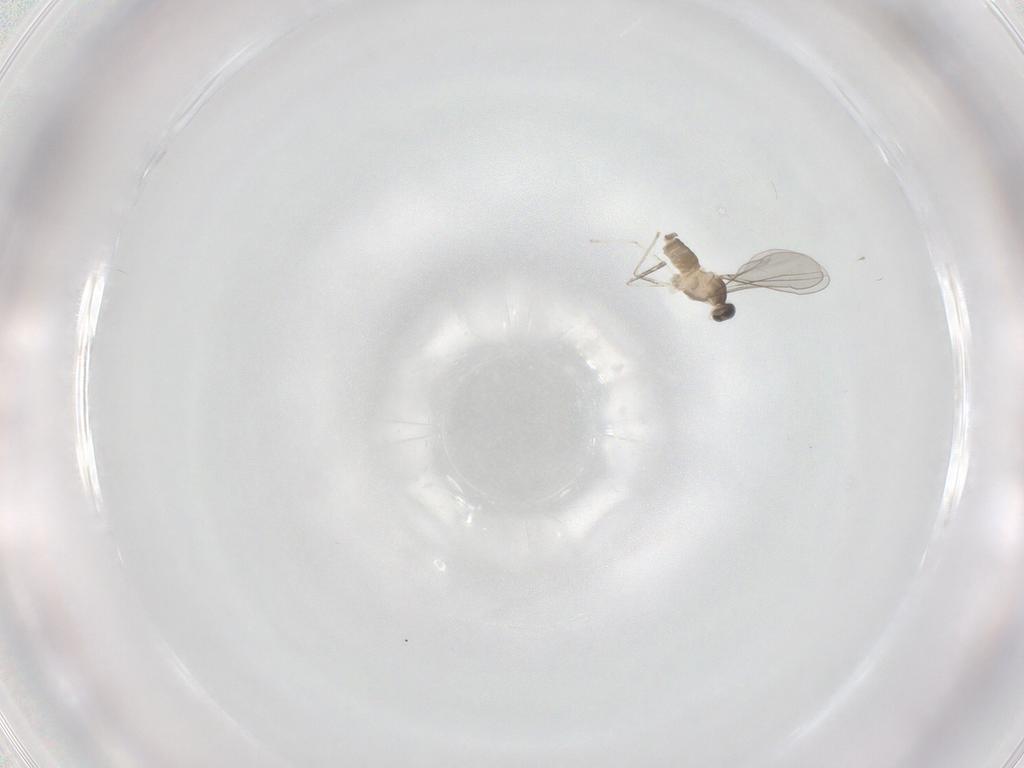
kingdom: Animalia
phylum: Arthropoda
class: Insecta
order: Diptera
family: Cecidomyiidae
